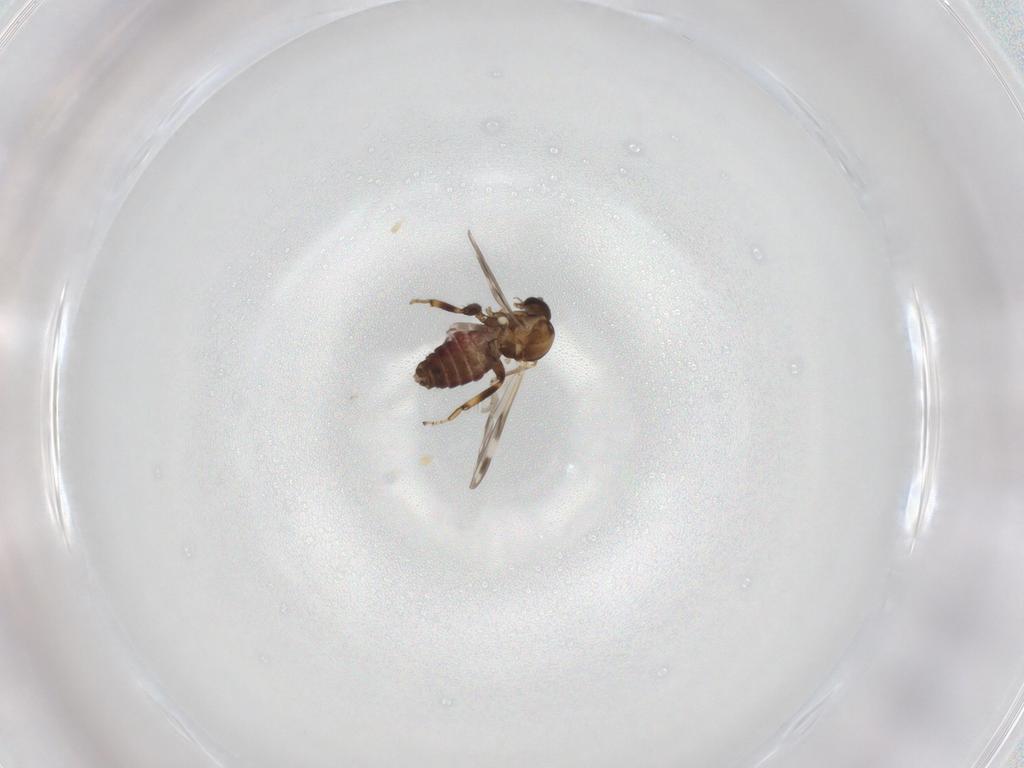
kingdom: Animalia
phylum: Arthropoda
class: Insecta
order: Diptera
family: Ceratopogonidae
